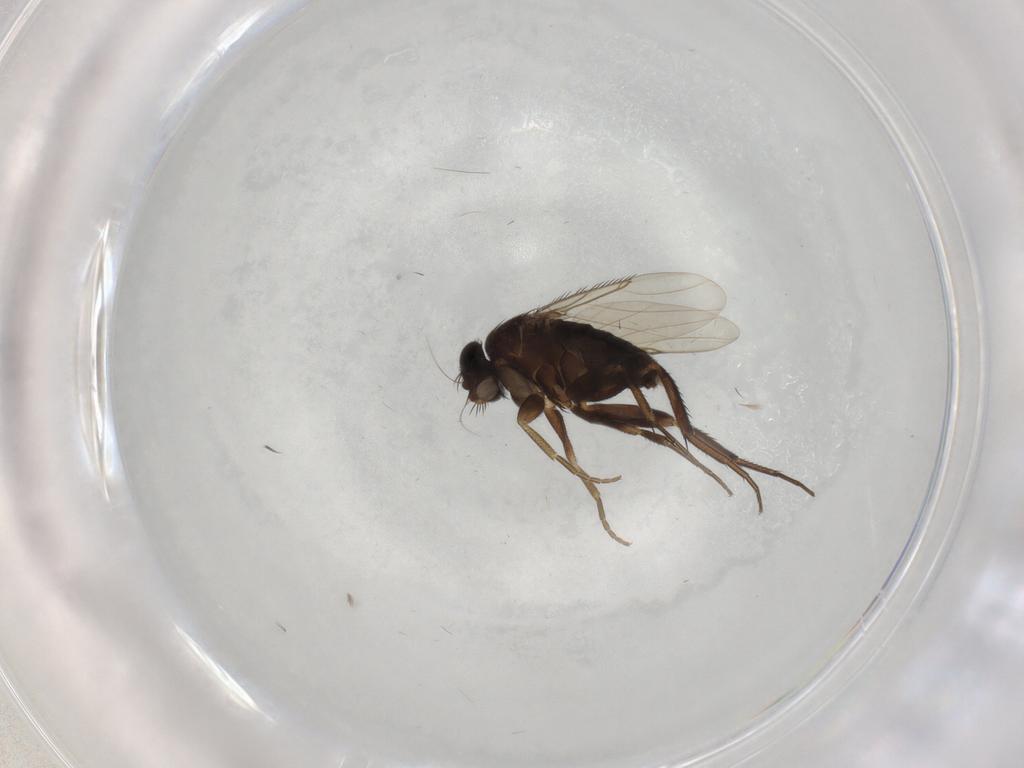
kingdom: Animalia
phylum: Arthropoda
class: Insecta
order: Diptera
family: Phoridae
